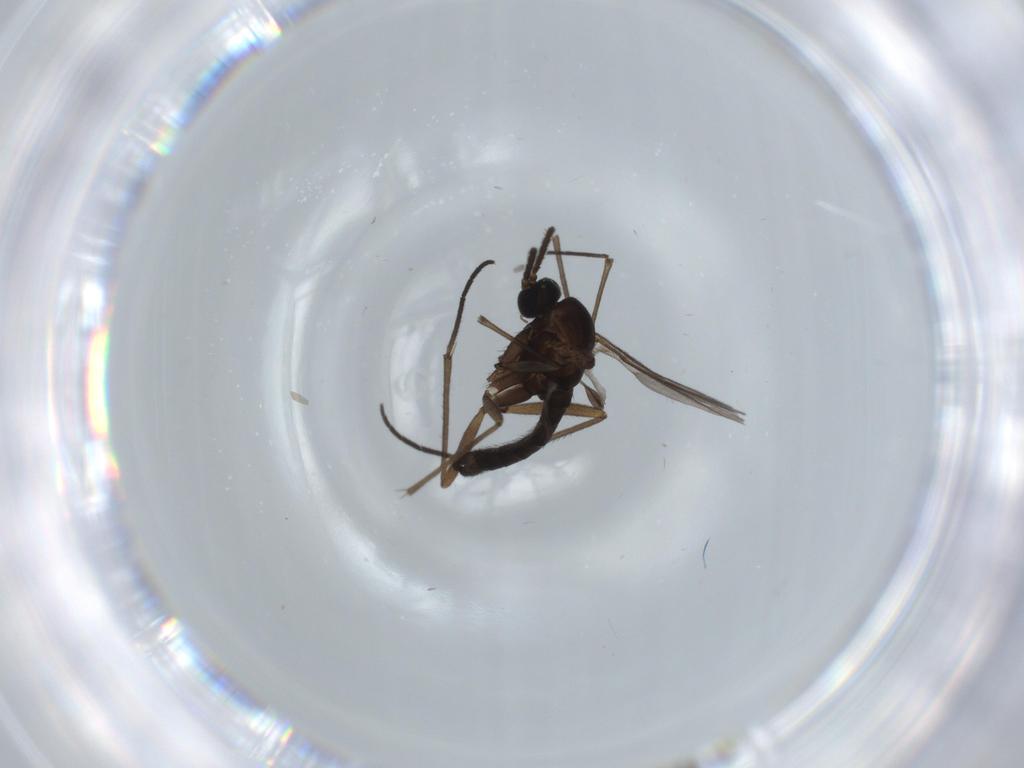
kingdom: Animalia
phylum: Arthropoda
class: Insecta
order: Diptera
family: Sciaridae
